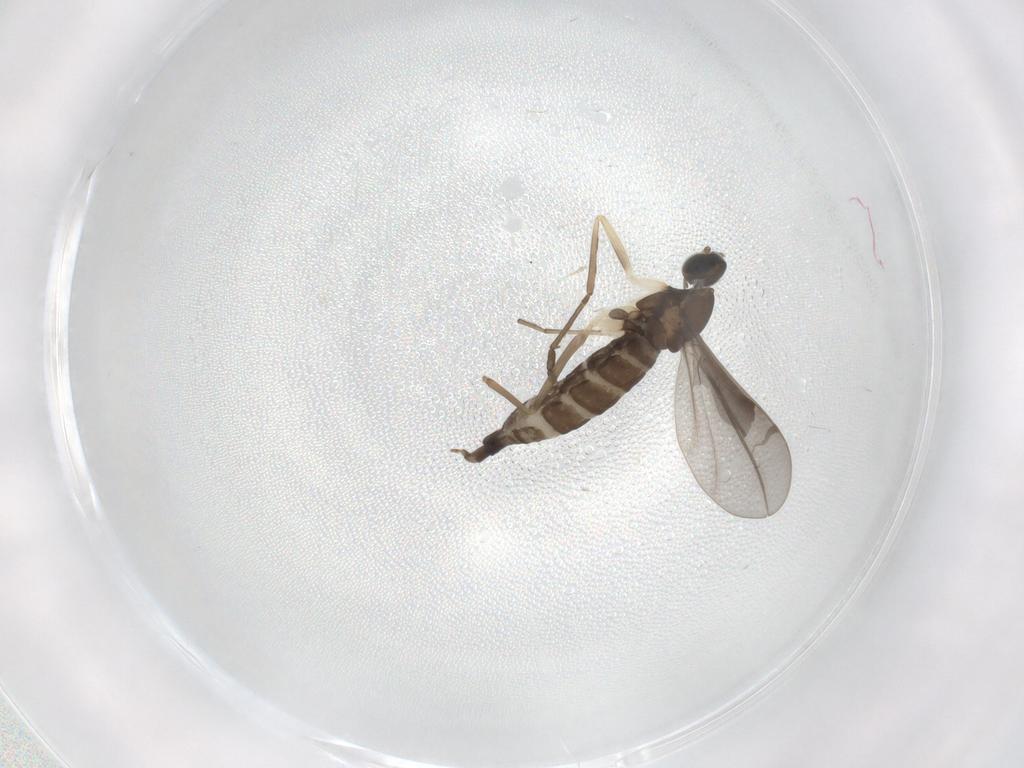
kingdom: Animalia
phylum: Arthropoda
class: Insecta
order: Diptera
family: Cecidomyiidae
